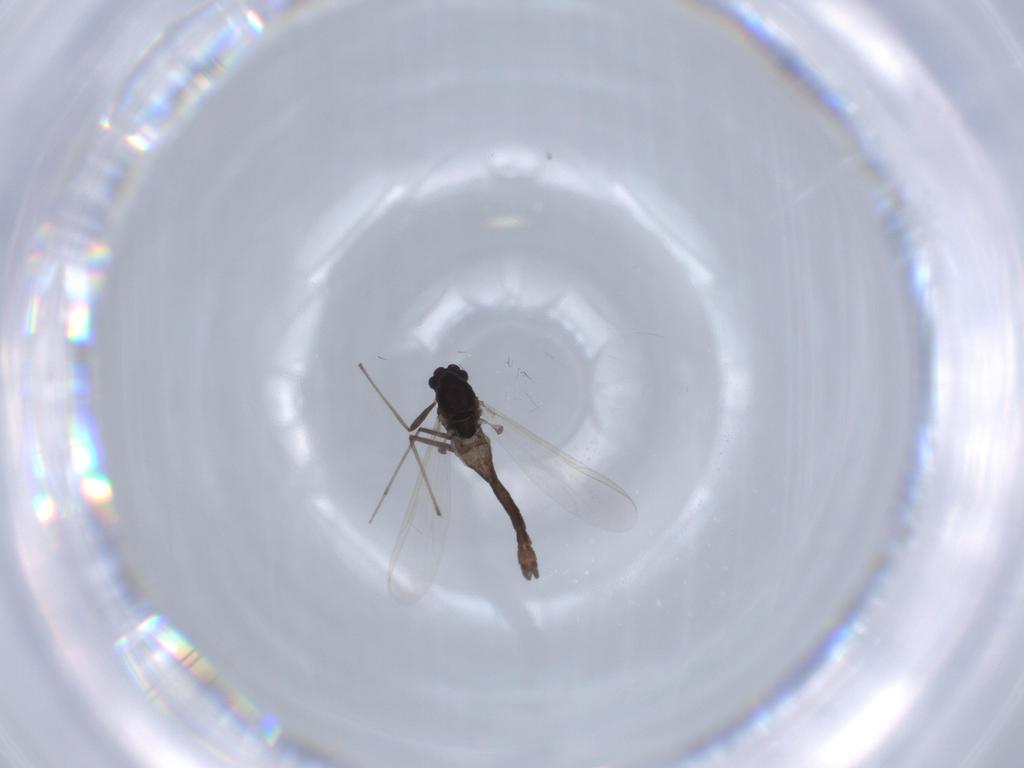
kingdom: Animalia
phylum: Arthropoda
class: Insecta
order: Diptera
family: Chironomidae
